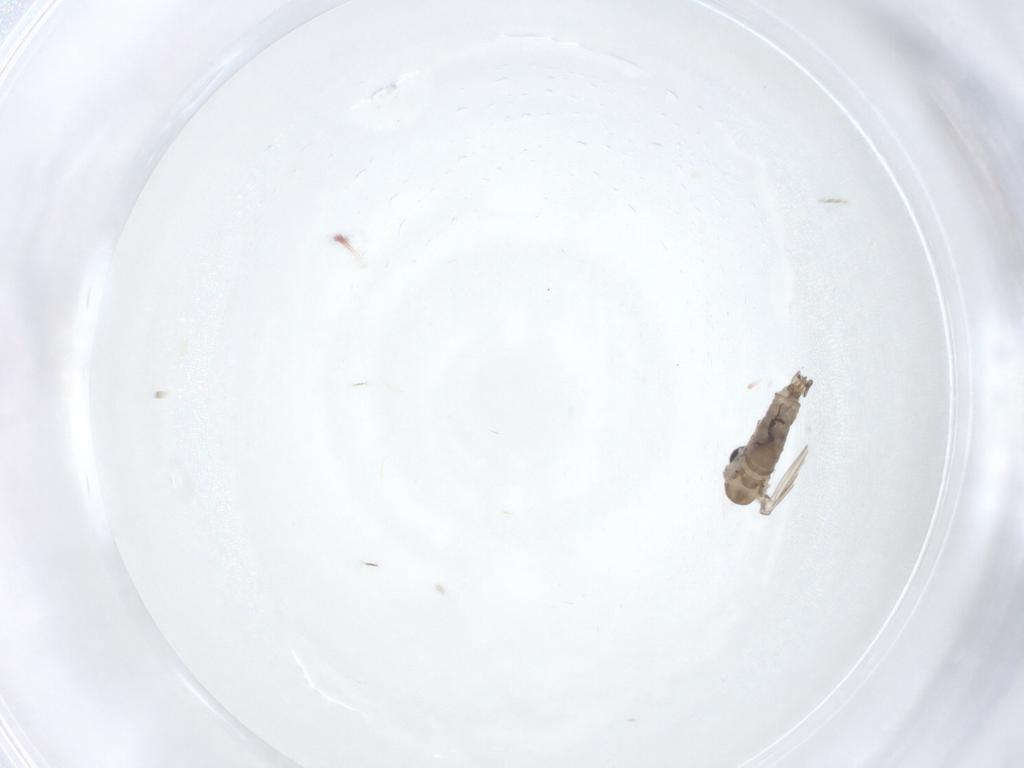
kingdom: Animalia
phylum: Arthropoda
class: Insecta
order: Diptera
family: Psychodidae
